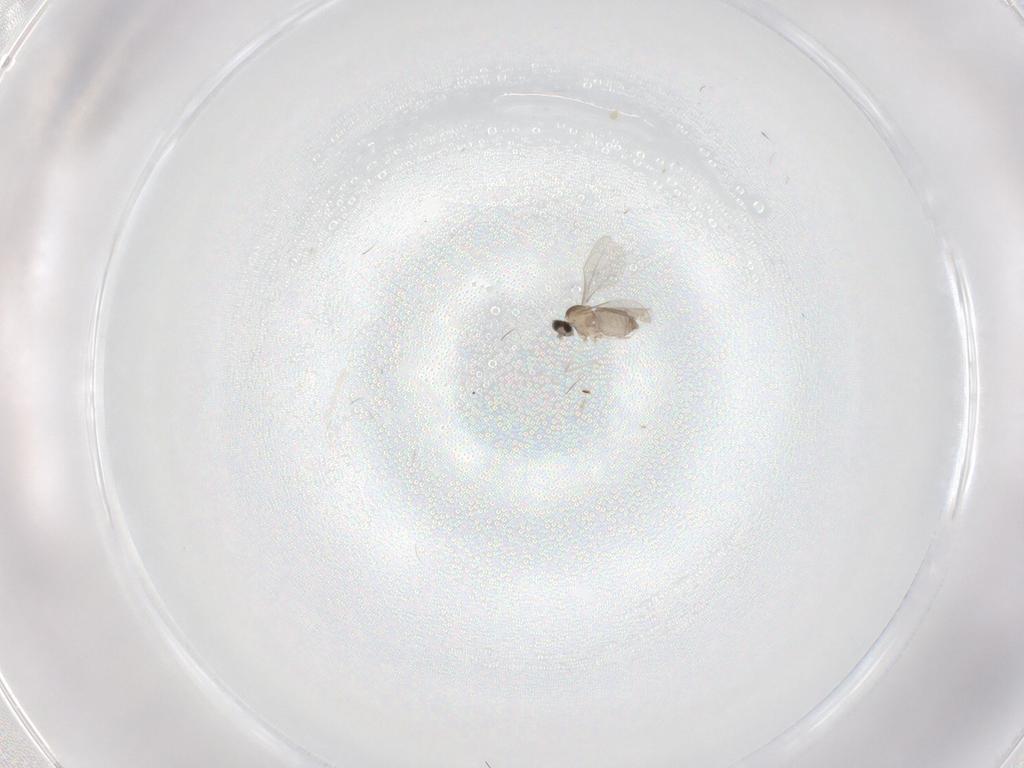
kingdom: Animalia
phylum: Arthropoda
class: Insecta
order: Diptera
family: Cecidomyiidae
